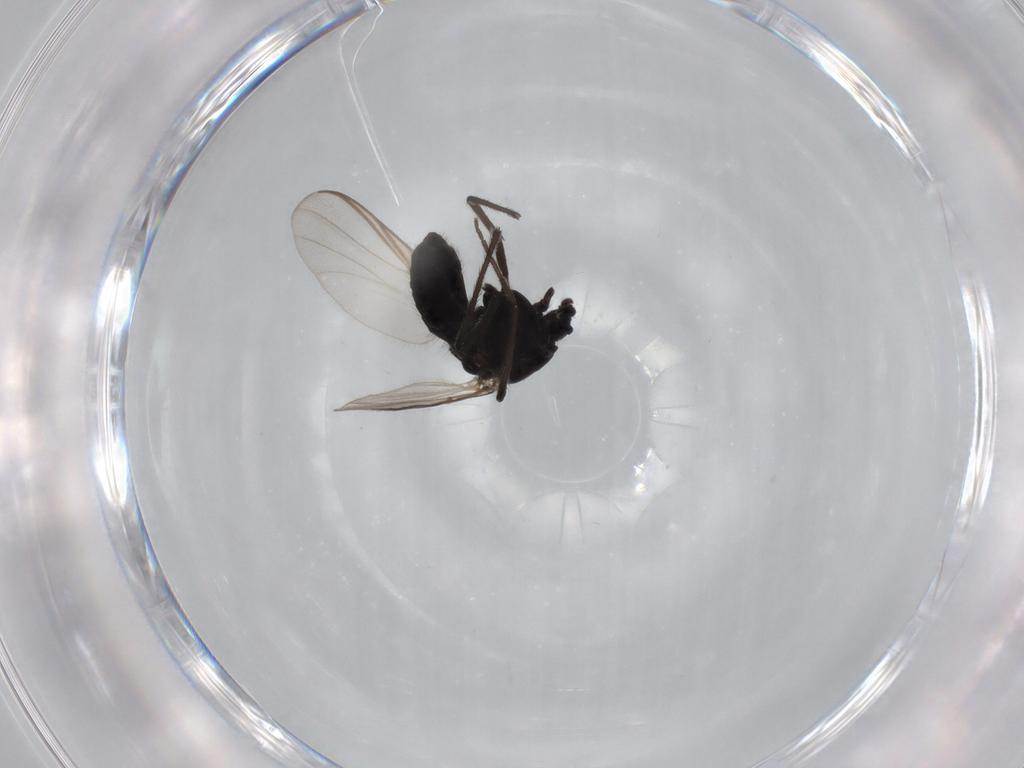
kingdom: Animalia
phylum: Arthropoda
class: Insecta
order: Diptera
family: Chironomidae
